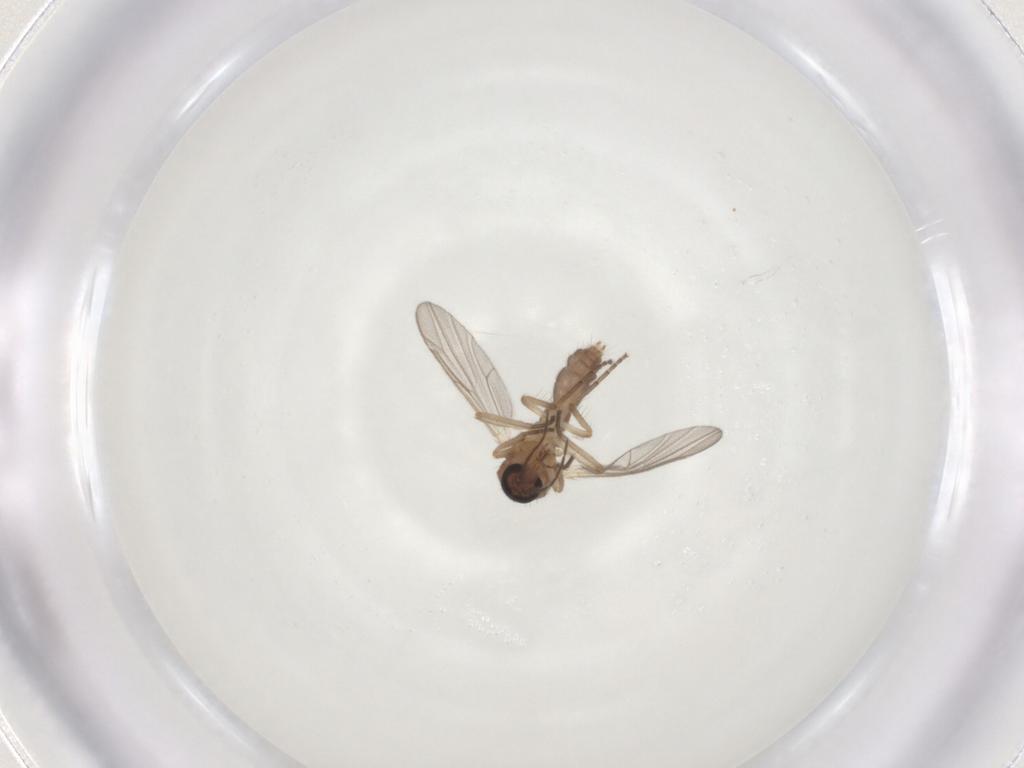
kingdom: Animalia
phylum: Arthropoda
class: Insecta
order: Diptera
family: Ceratopogonidae
